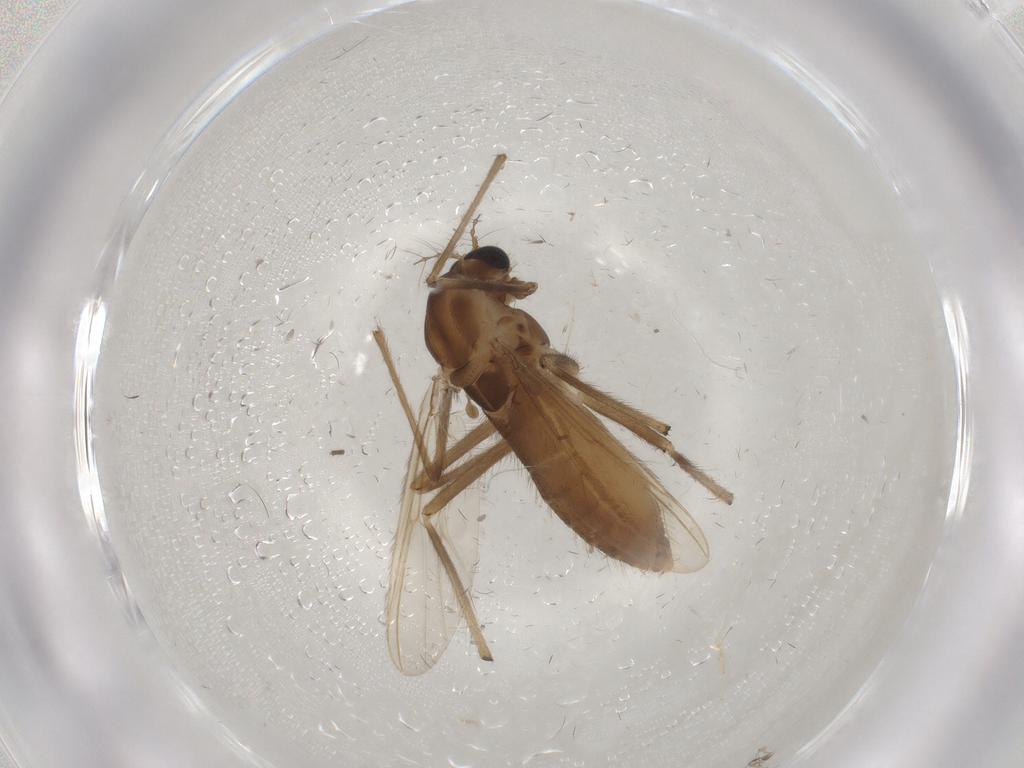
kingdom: Animalia
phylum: Arthropoda
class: Insecta
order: Diptera
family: Chironomidae
